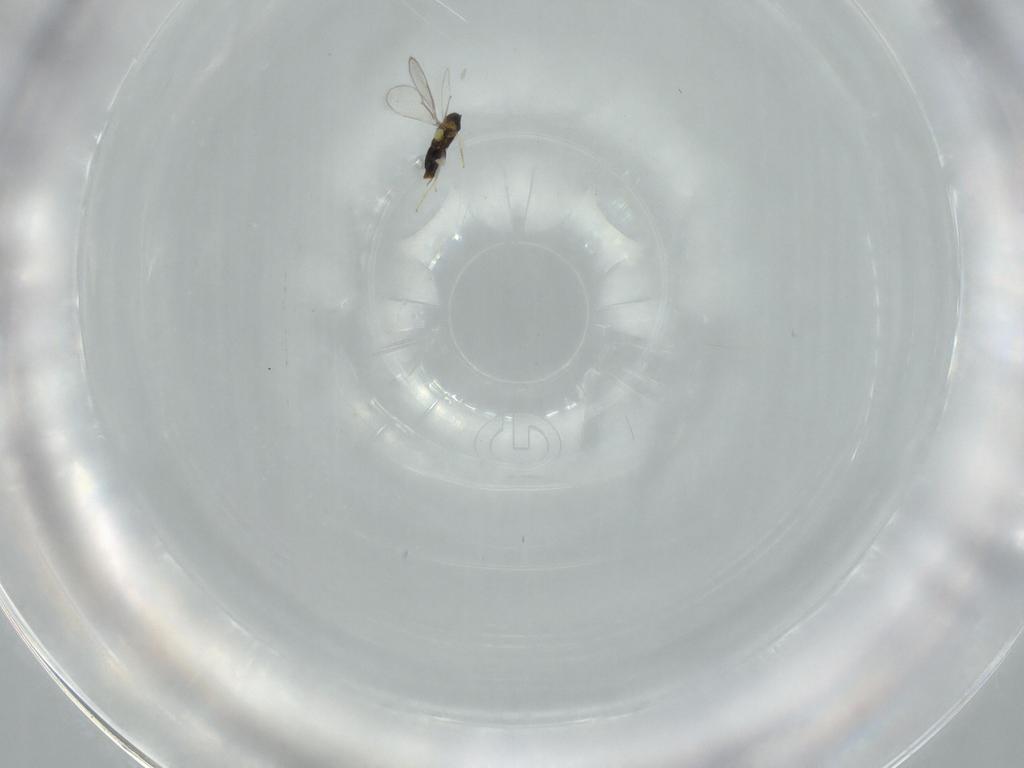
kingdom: Animalia
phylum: Arthropoda
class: Insecta
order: Hymenoptera
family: Aphelinidae
